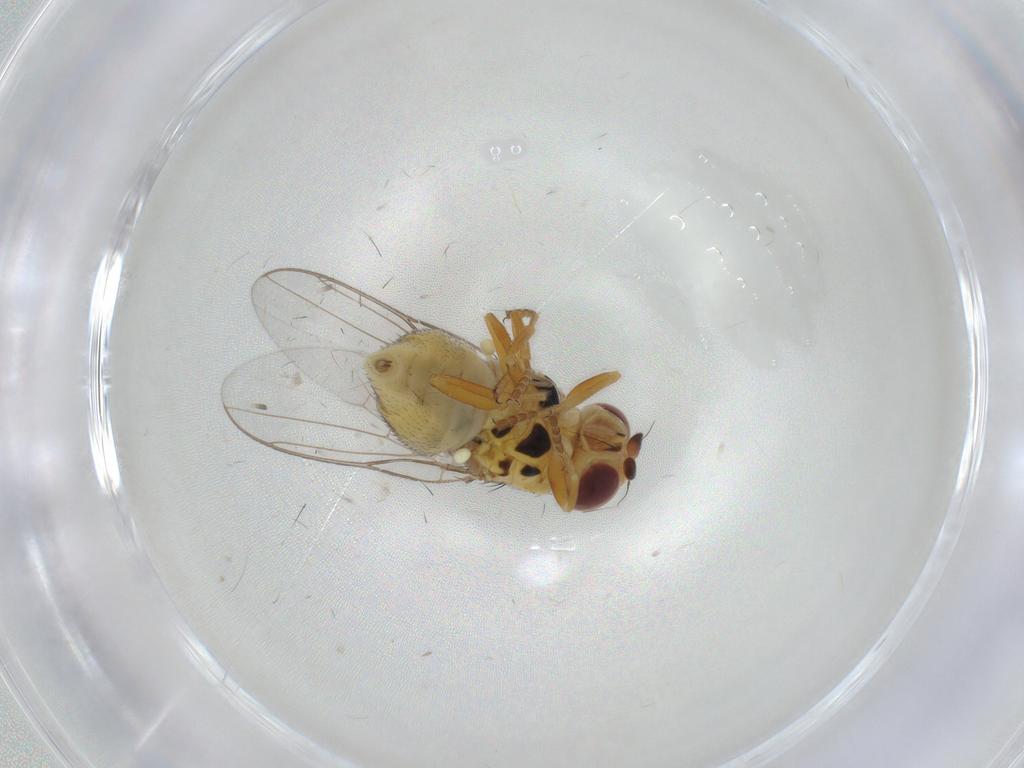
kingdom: Animalia
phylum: Arthropoda
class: Insecta
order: Diptera
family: Chloropidae
